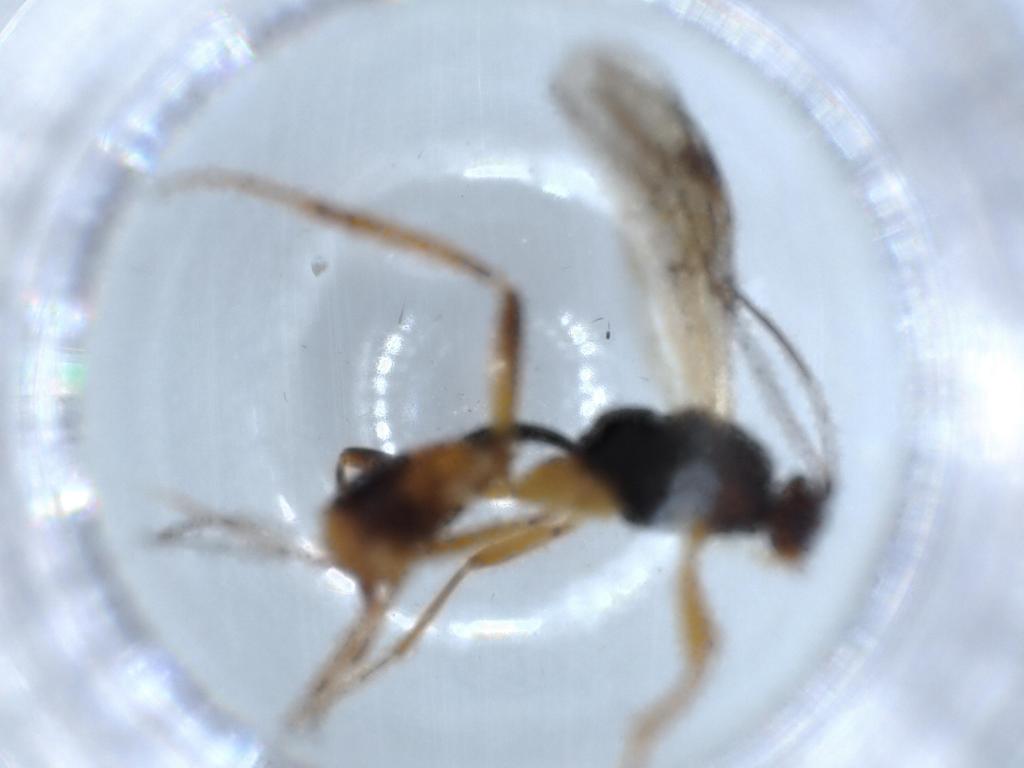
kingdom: Animalia
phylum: Arthropoda
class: Insecta
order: Hymenoptera
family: Braconidae
